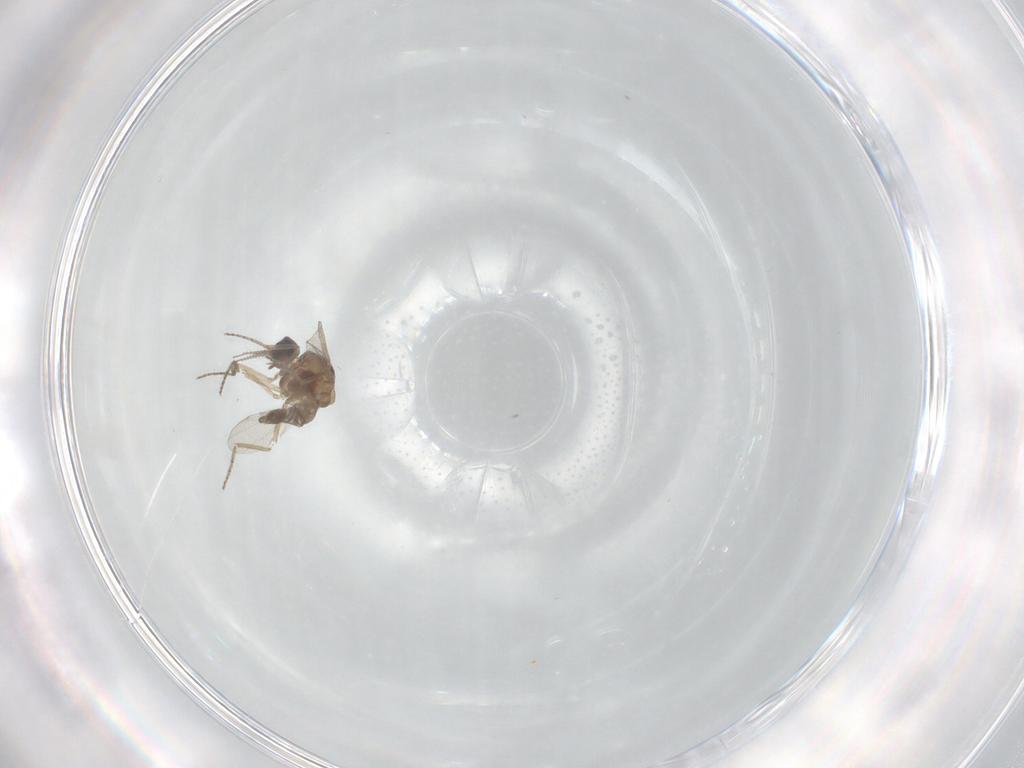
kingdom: Animalia
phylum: Arthropoda
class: Insecta
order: Diptera
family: Ceratopogonidae
